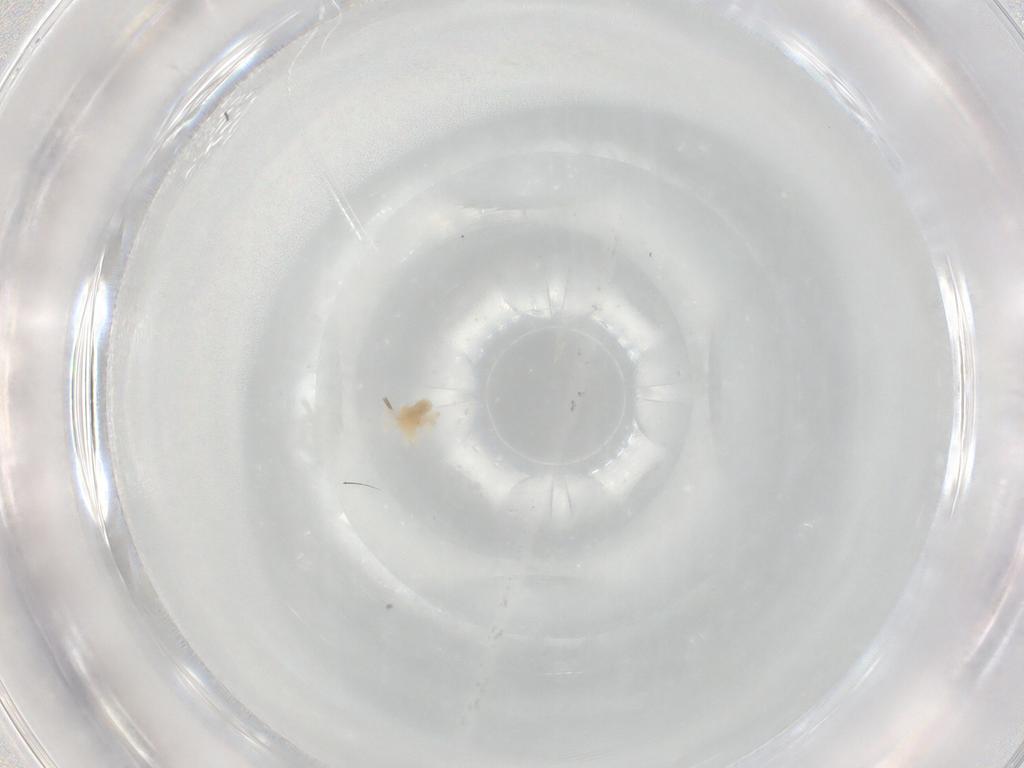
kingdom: Animalia
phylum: Arthropoda
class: Arachnida
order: Trombidiformes
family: Anystidae
